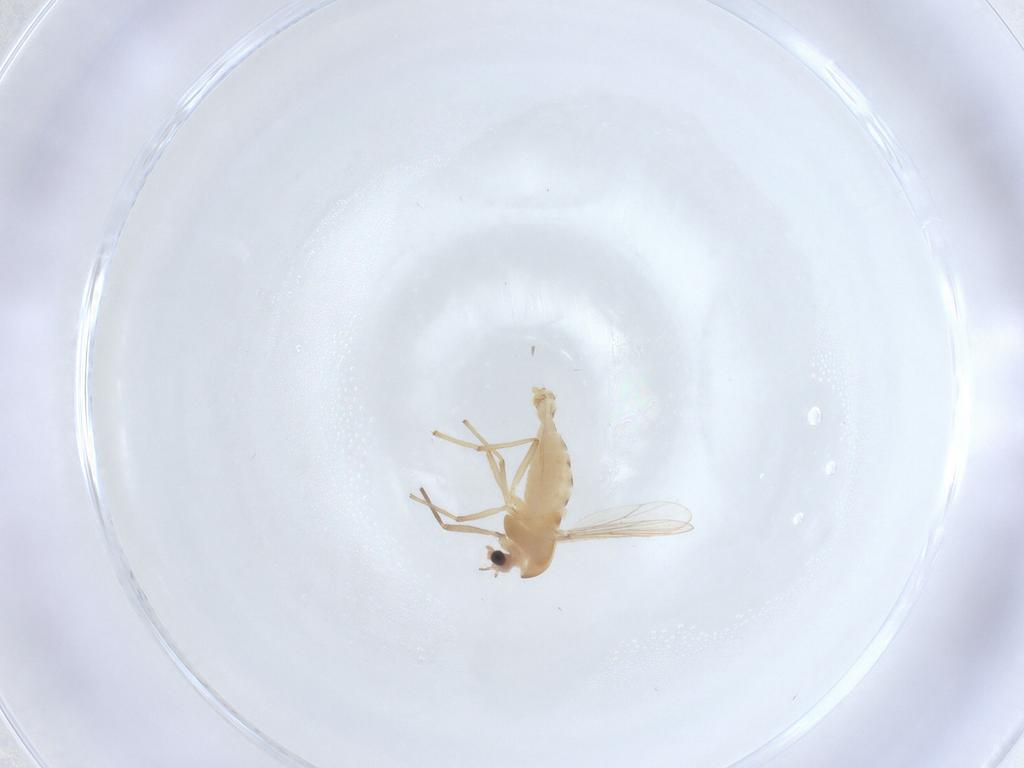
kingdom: Animalia
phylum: Arthropoda
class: Insecta
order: Diptera
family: Chironomidae
